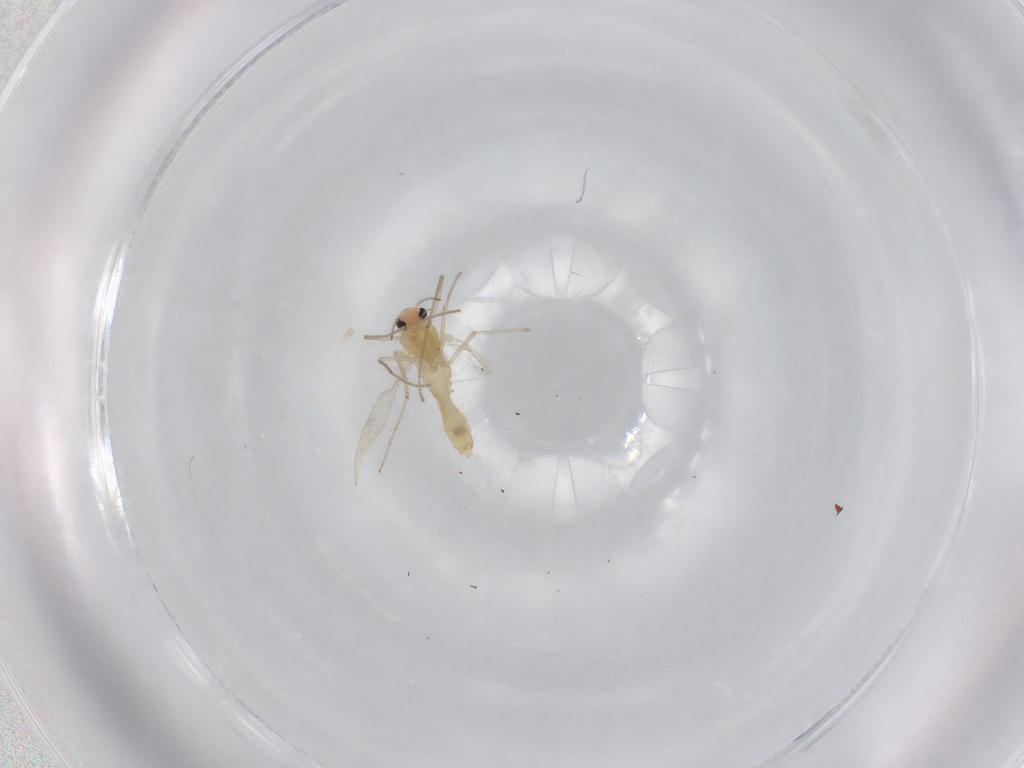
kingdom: Animalia
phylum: Arthropoda
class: Insecta
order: Diptera
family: Chironomidae
